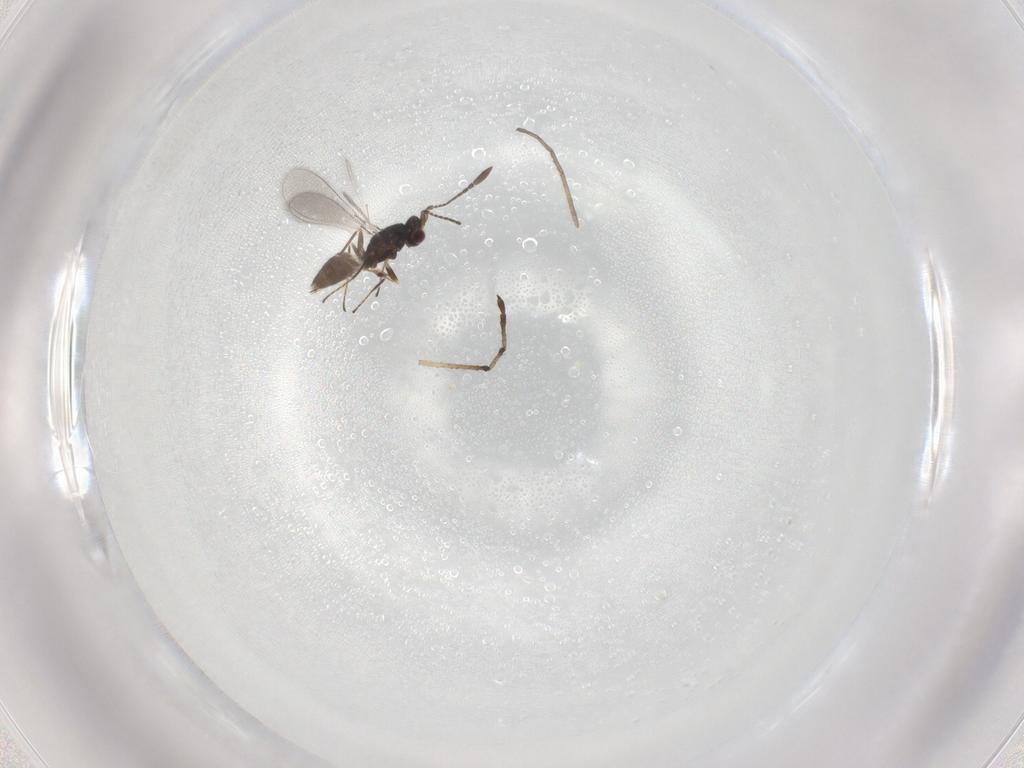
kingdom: Animalia
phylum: Arthropoda
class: Insecta
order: Hymenoptera
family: Mymaridae
